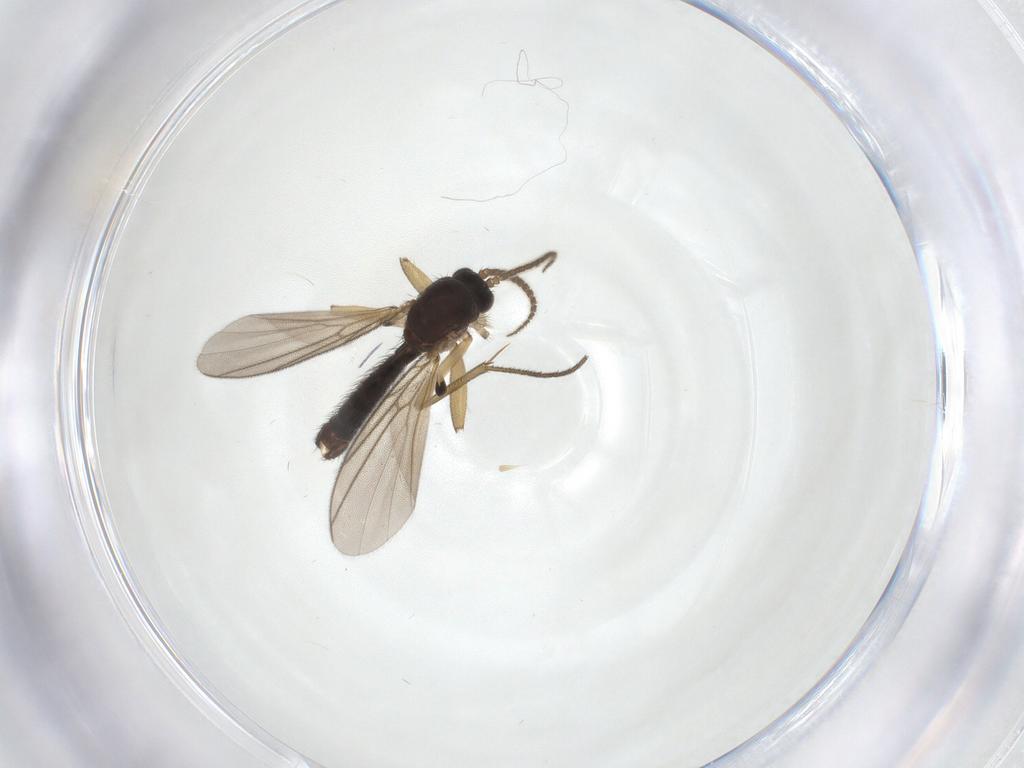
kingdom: Animalia
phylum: Arthropoda
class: Insecta
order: Diptera
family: Mycetophilidae
